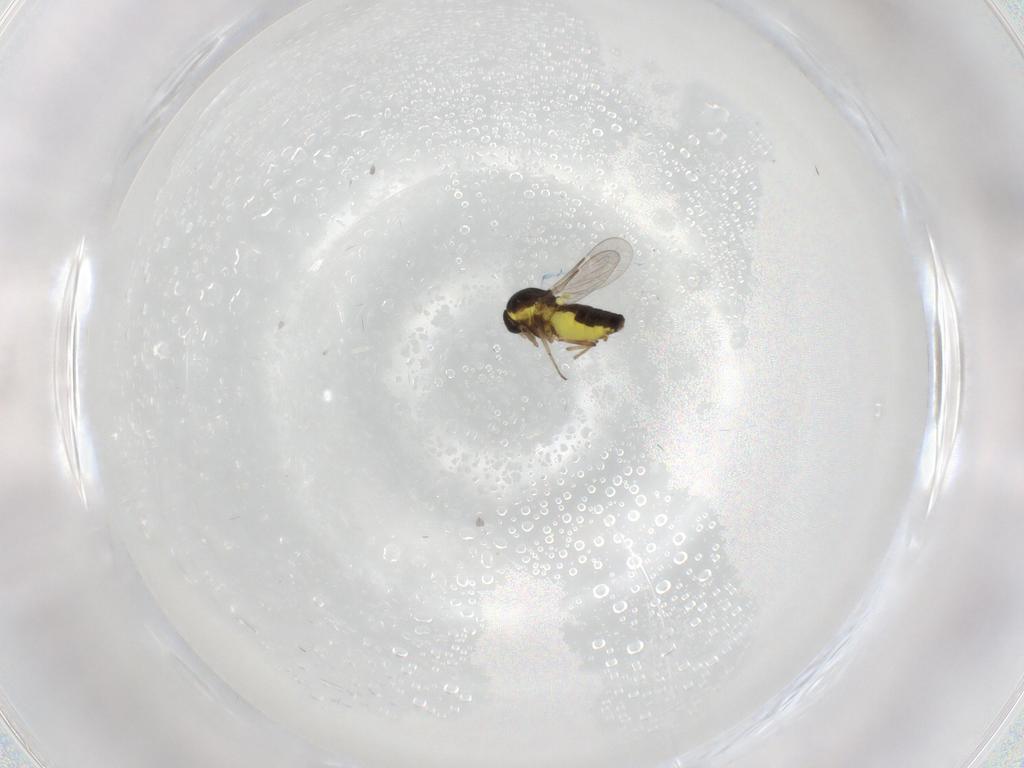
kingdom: Animalia
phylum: Arthropoda
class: Insecta
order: Diptera
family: Ceratopogonidae
